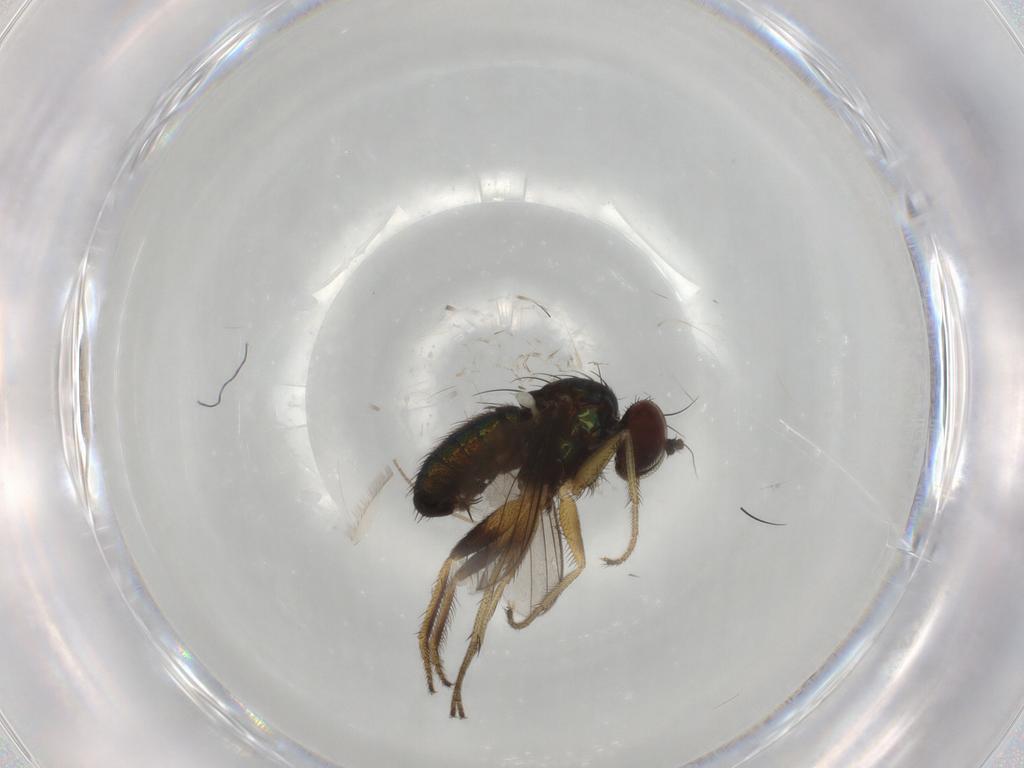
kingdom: Animalia
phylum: Arthropoda
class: Insecta
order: Diptera
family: Dolichopodidae
